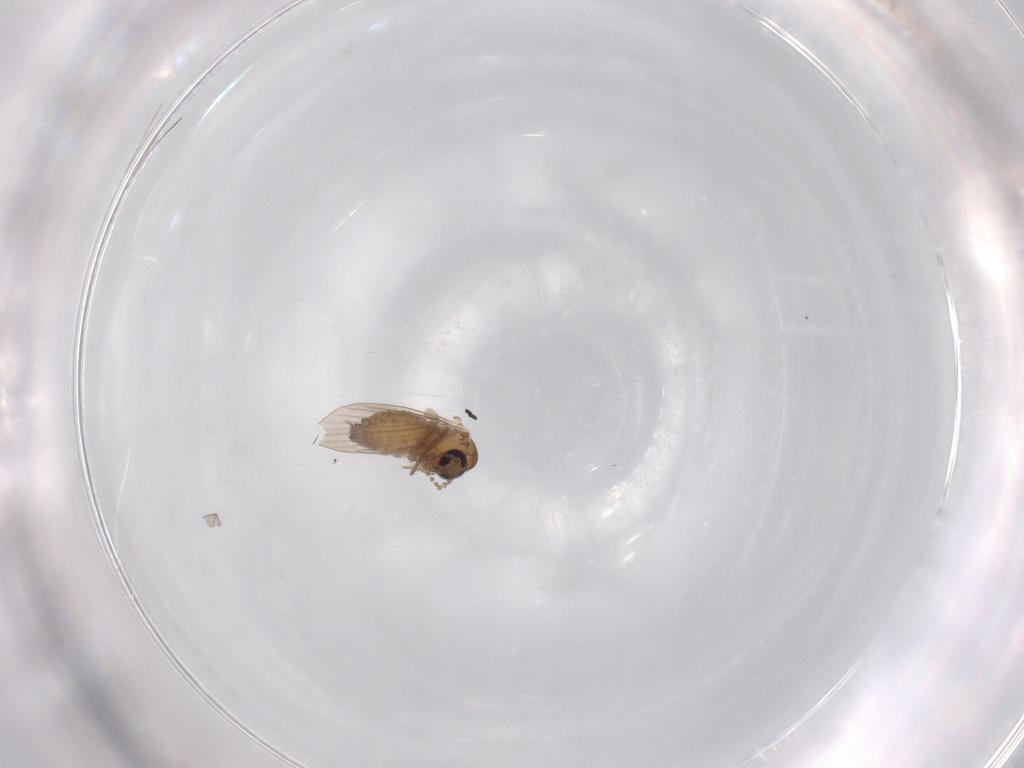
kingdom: Animalia
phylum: Arthropoda
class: Insecta
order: Diptera
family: Psychodidae
